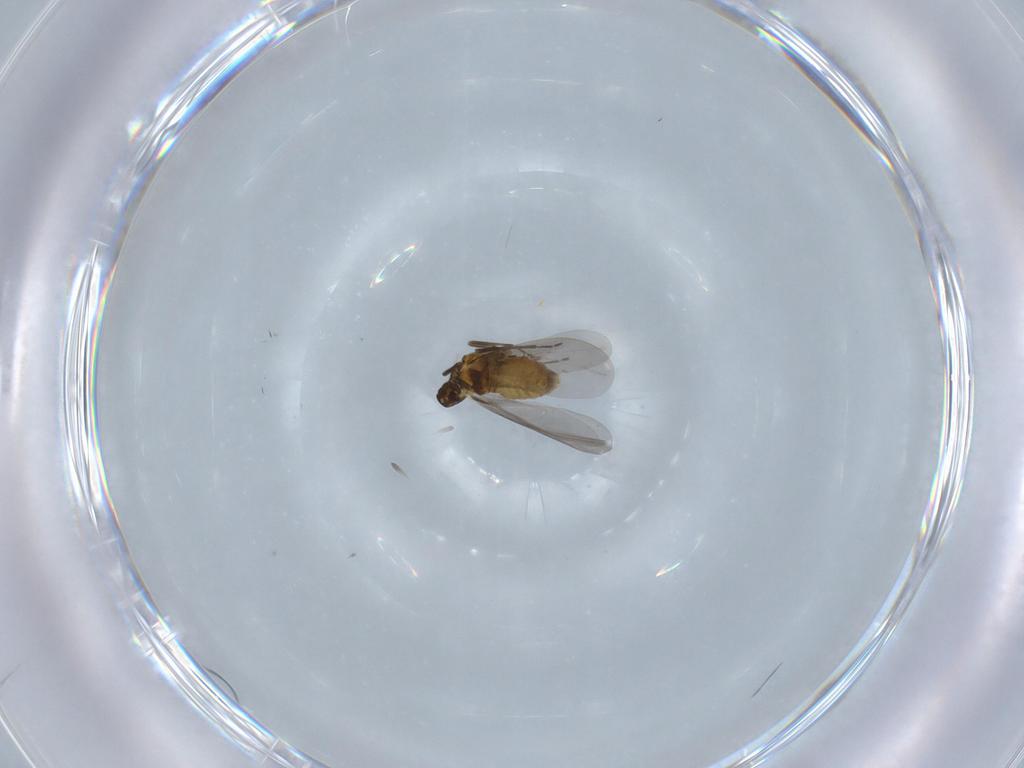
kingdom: Animalia
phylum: Arthropoda
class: Insecta
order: Hemiptera
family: Aleyrodidae
